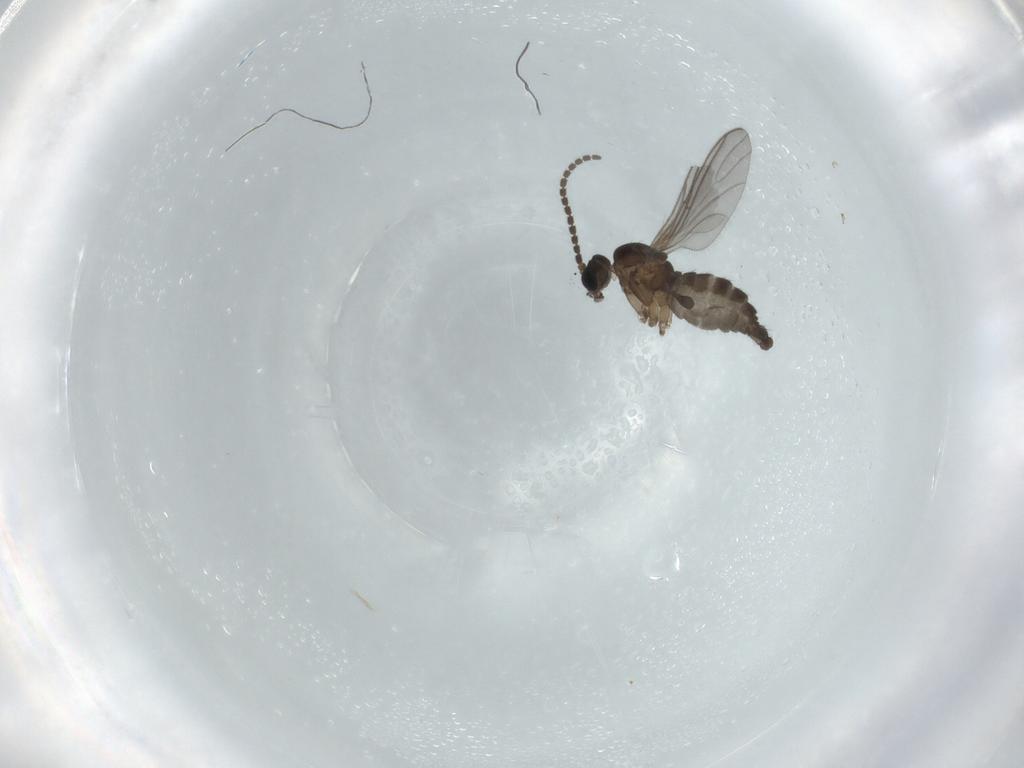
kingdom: Animalia
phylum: Arthropoda
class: Insecta
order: Diptera
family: Sciaridae
